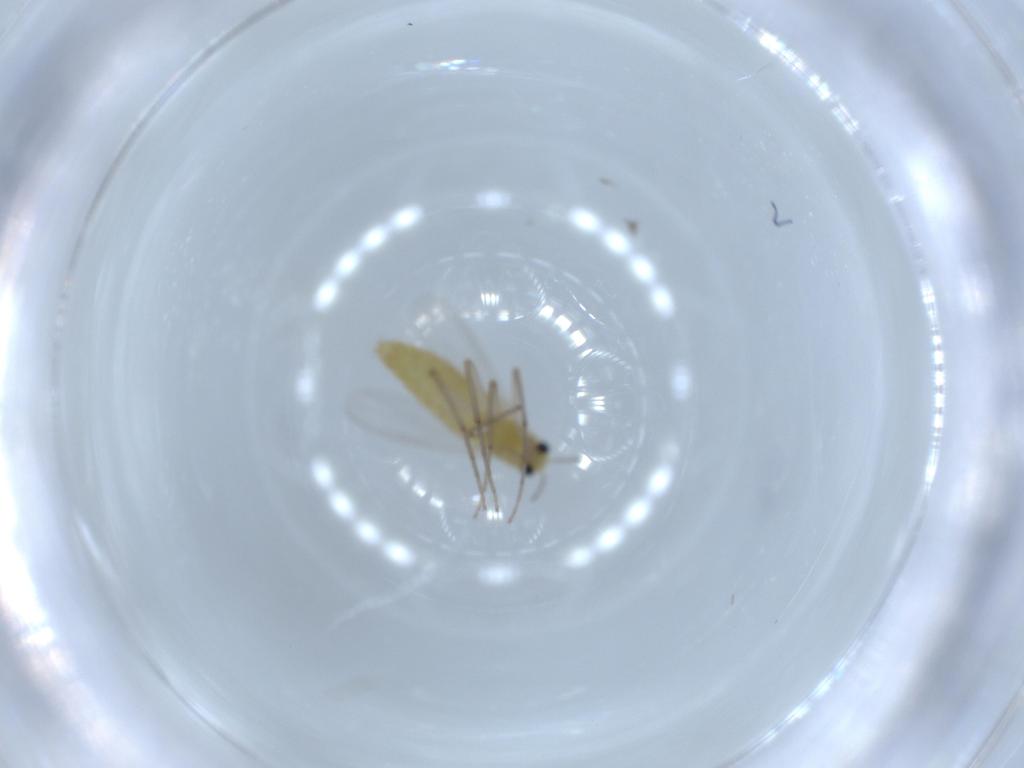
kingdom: Animalia
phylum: Arthropoda
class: Insecta
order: Diptera
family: Chironomidae
